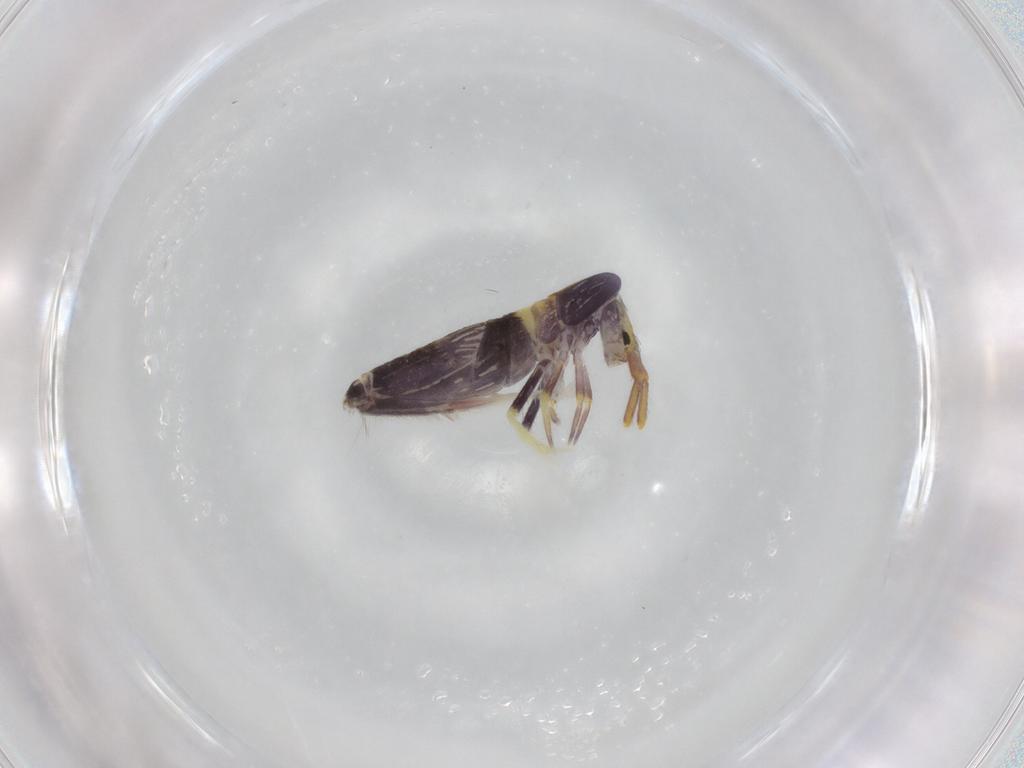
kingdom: Animalia
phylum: Arthropoda
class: Collembola
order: Entomobryomorpha
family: Entomobryidae
